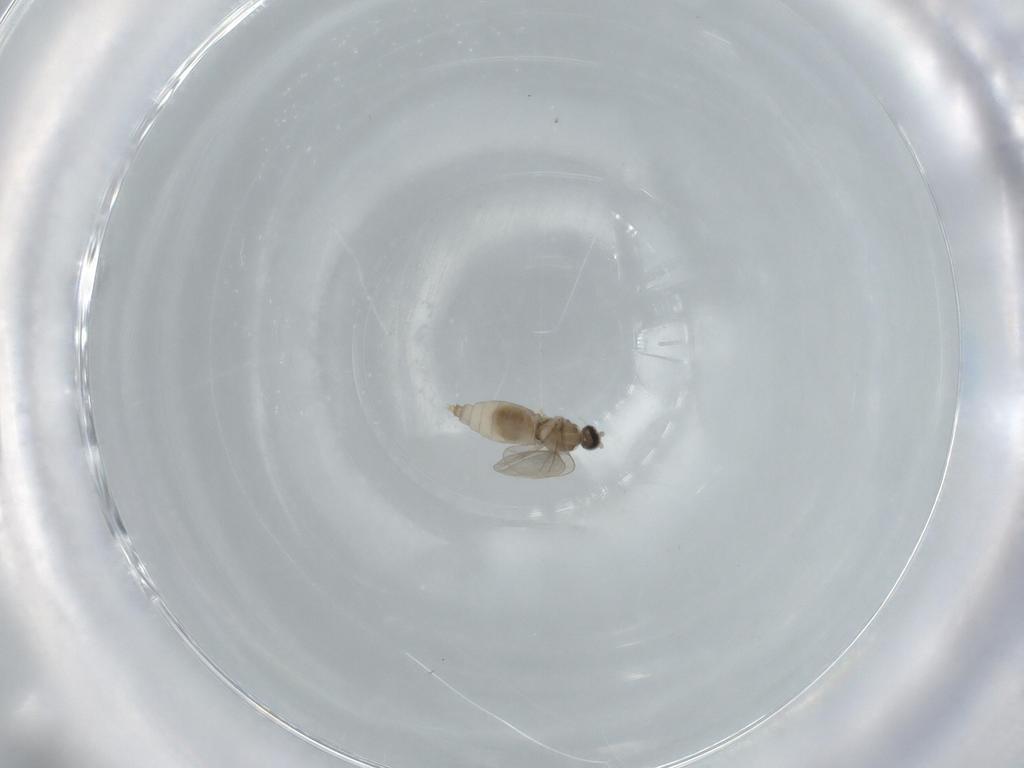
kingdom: Animalia
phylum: Arthropoda
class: Insecta
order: Diptera
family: Cecidomyiidae
